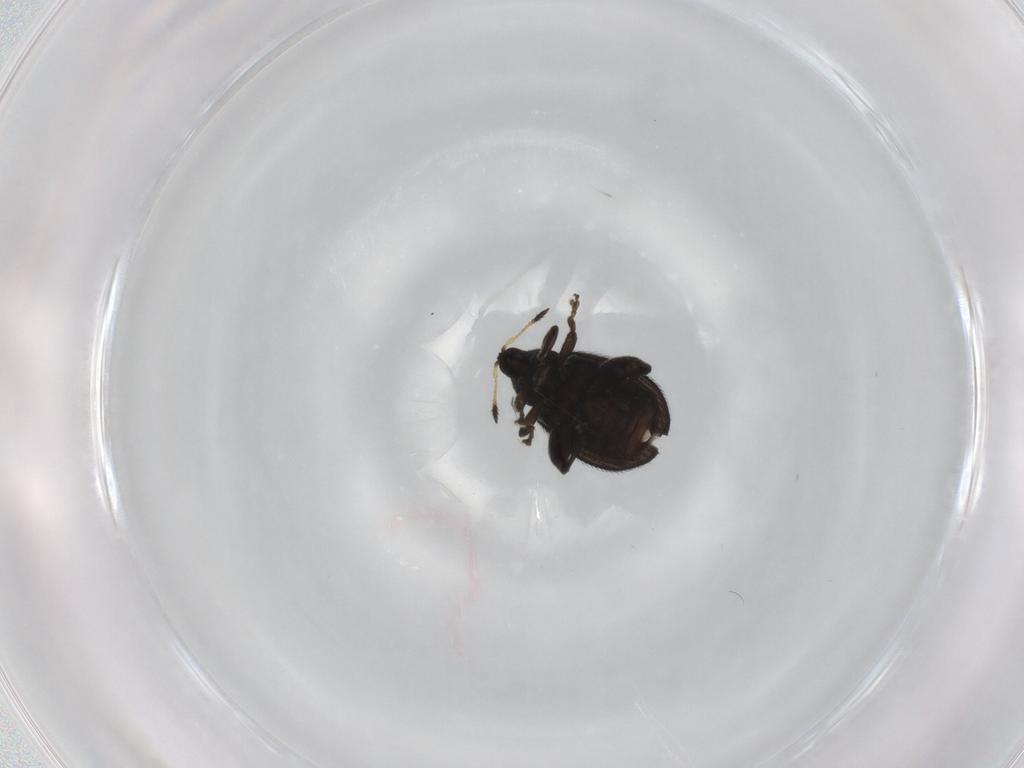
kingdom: Animalia
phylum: Arthropoda
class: Insecta
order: Coleoptera
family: Curculionidae
